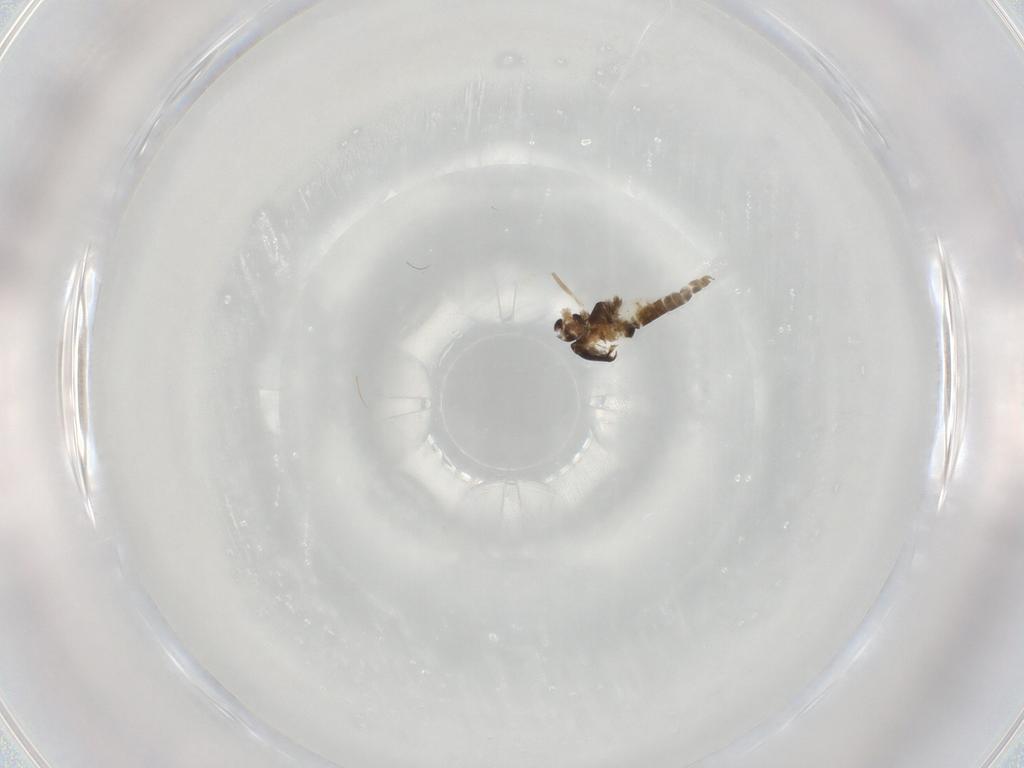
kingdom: Animalia
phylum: Arthropoda
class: Insecta
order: Diptera
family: Chironomidae
